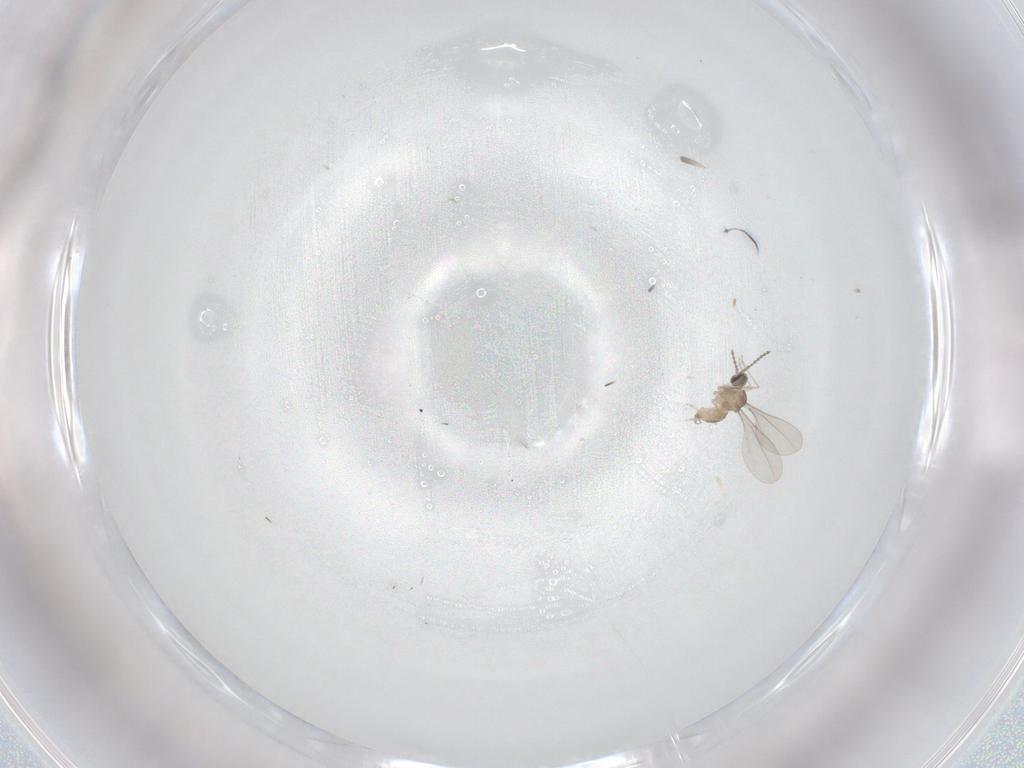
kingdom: Animalia
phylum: Arthropoda
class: Insecta
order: Diptera
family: Sciaridae
